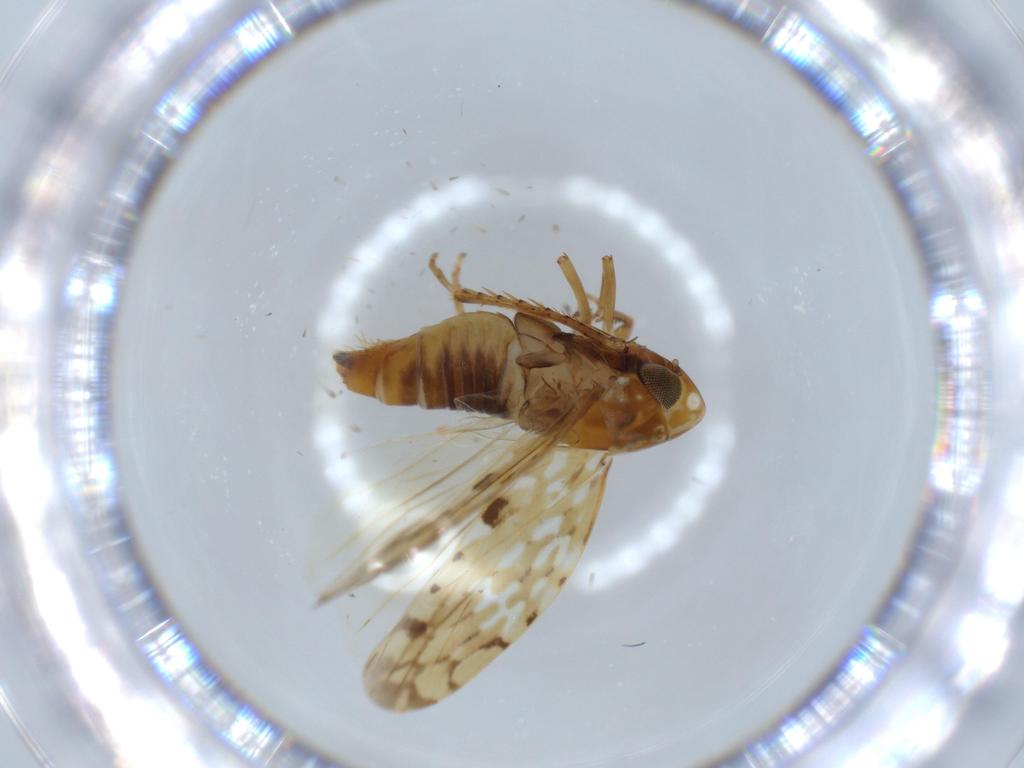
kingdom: Animalia
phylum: Arthropoda
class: Insecta
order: Hemiptera
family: Cicadellidae
